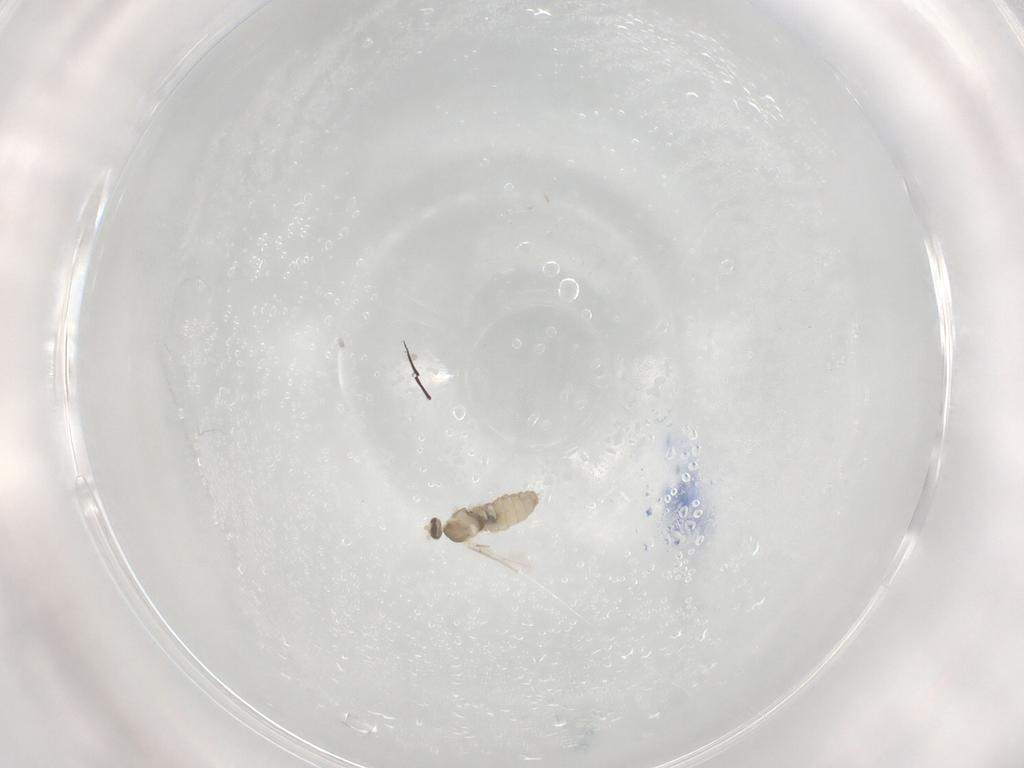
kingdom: Animalia
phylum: Arthropoda
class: Insecta
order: Diptera
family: Cecidomyiidae
